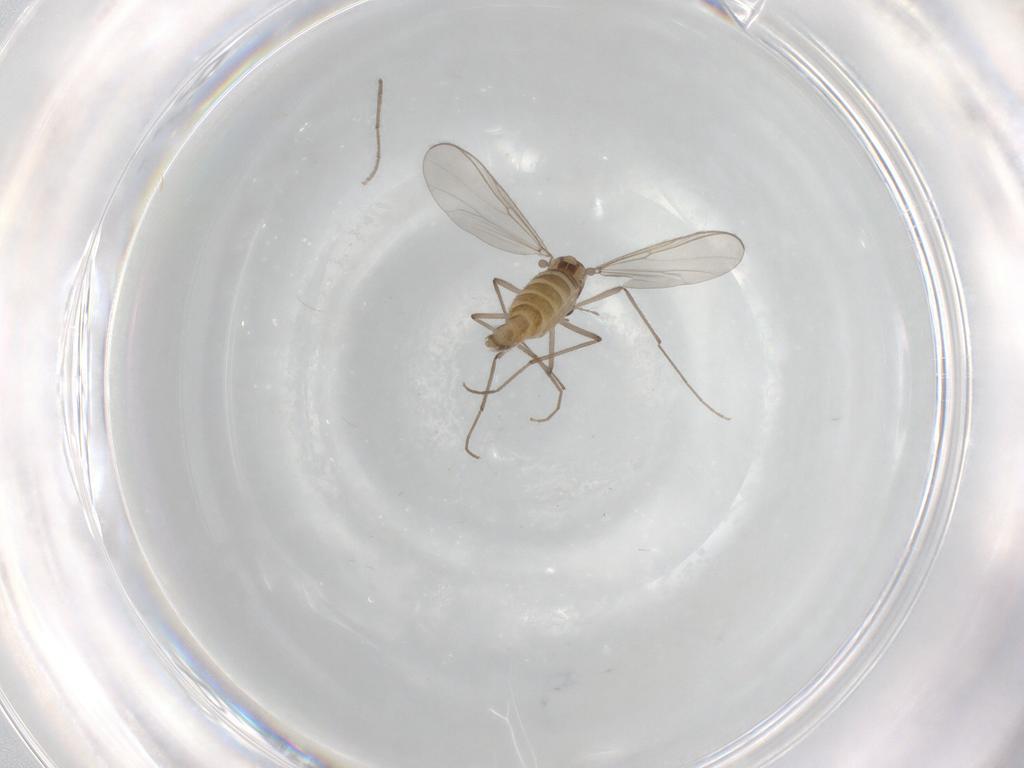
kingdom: Animalia
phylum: Arthropoda
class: Insecta
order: Diptera
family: Chironomidae
